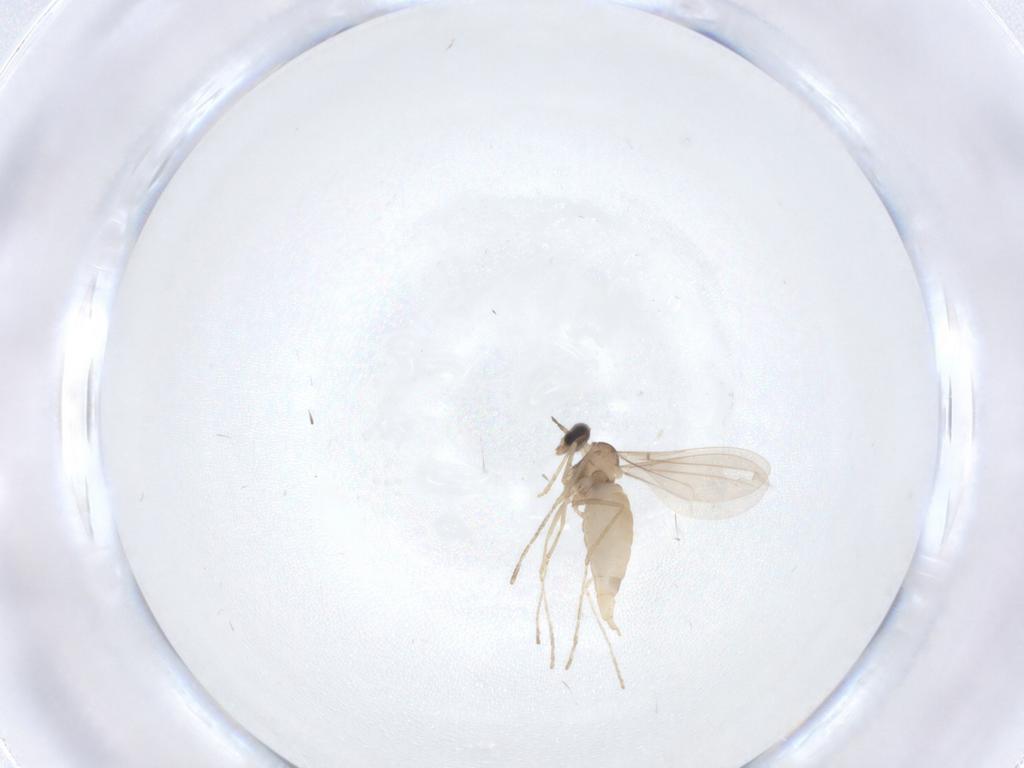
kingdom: Animalia
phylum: Arthropoda
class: Insecta
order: Diptera
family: Cecidomyiidae
